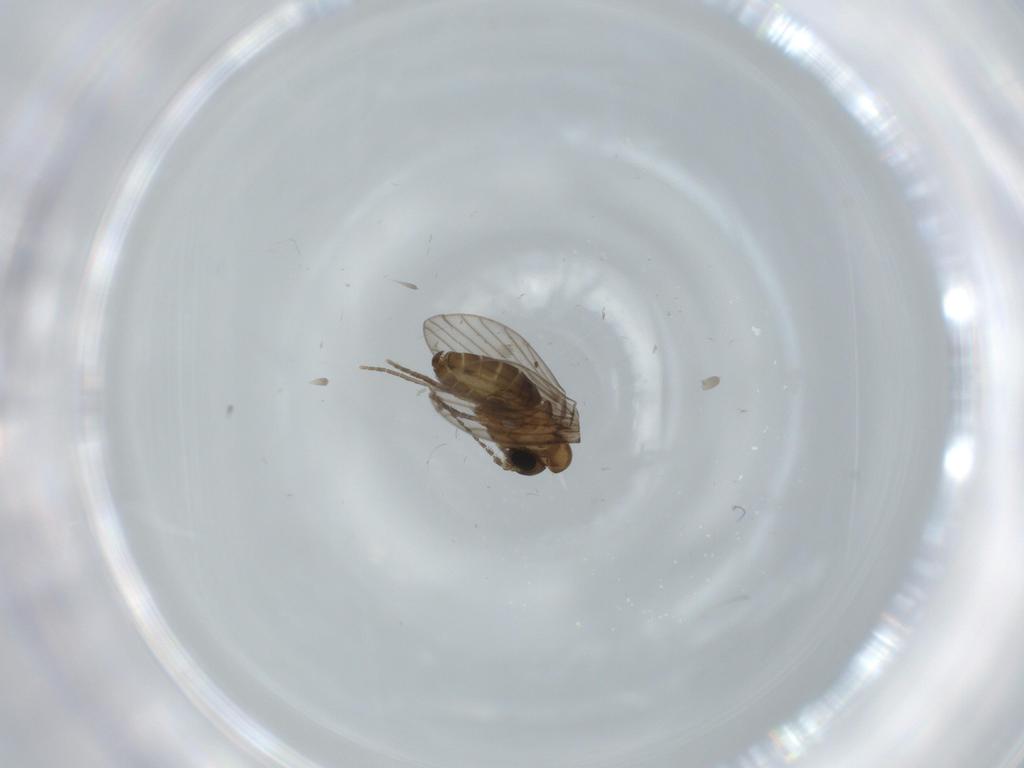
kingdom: Animalia
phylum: Arthropoda
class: Insecta
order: Diptera
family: Cecidomyiidae
